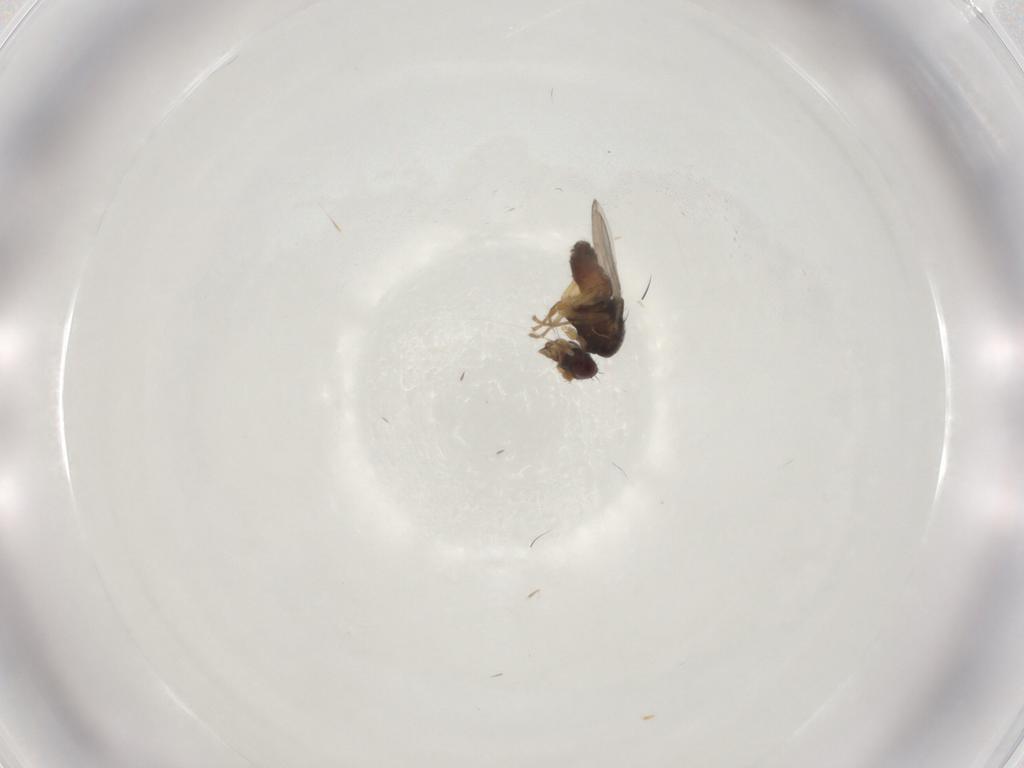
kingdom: Animalia
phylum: Arthropoda
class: Insecta
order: Diptera
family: Sphaeroceridae
